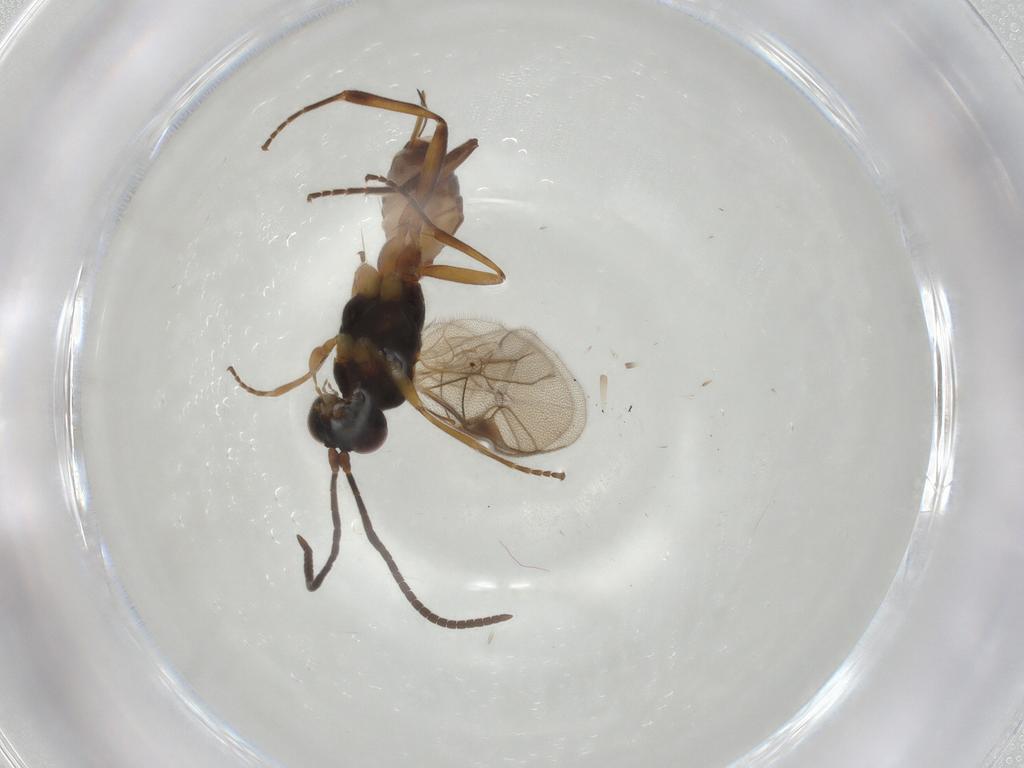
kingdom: Animalia
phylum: Arthropoda
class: Insecta
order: Hymenoptera
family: Ichneumonidae
